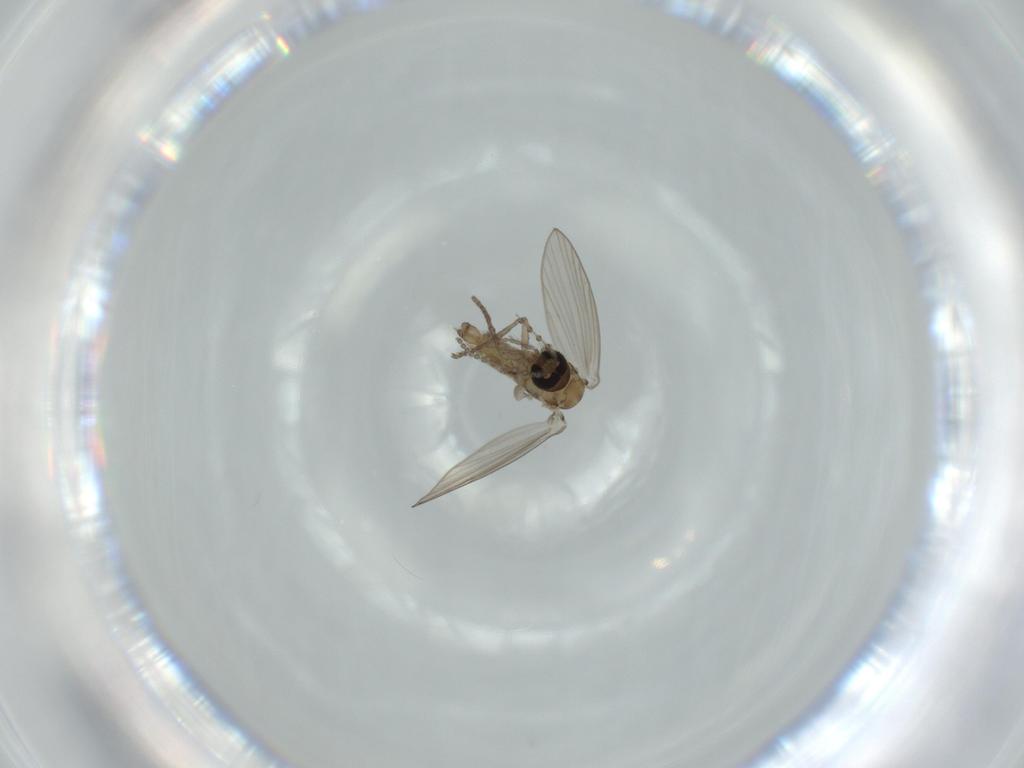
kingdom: Animalia
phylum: Arthropoda
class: Insecta
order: Diptera
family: Psychodidae
